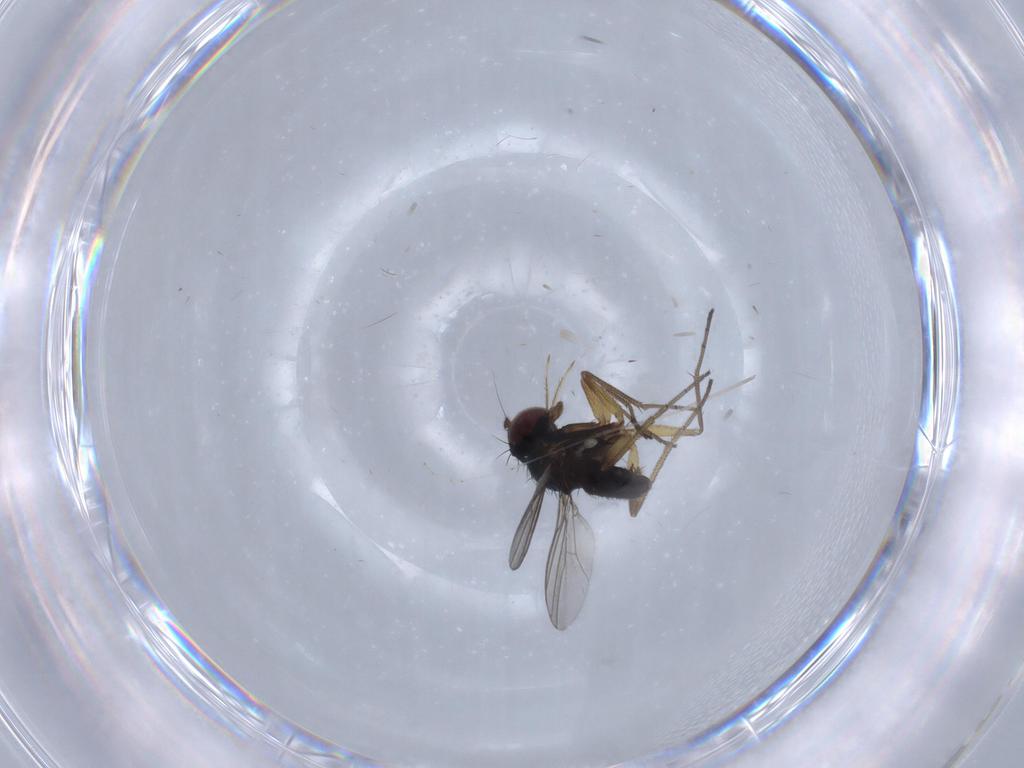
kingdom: Animalia
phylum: Arthropoda
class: Insecta
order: Diptera
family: Dolichopodidae
